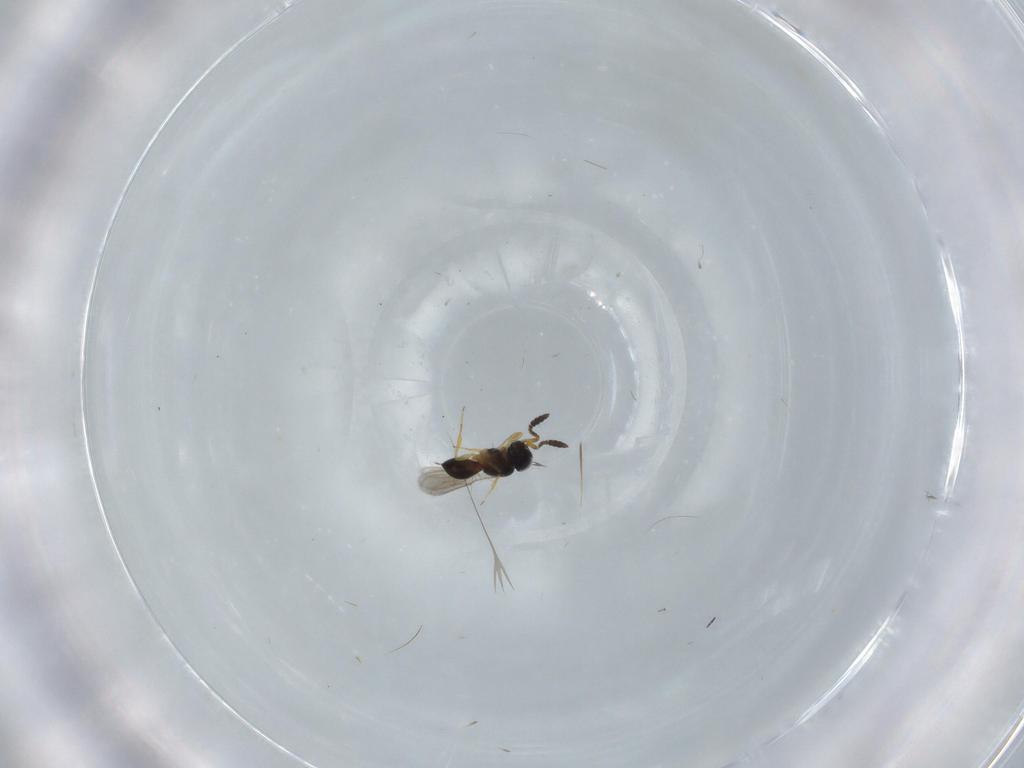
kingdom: Animalia
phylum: Arthropoda
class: Insecta
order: Hymenoptera
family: Scelionidae
